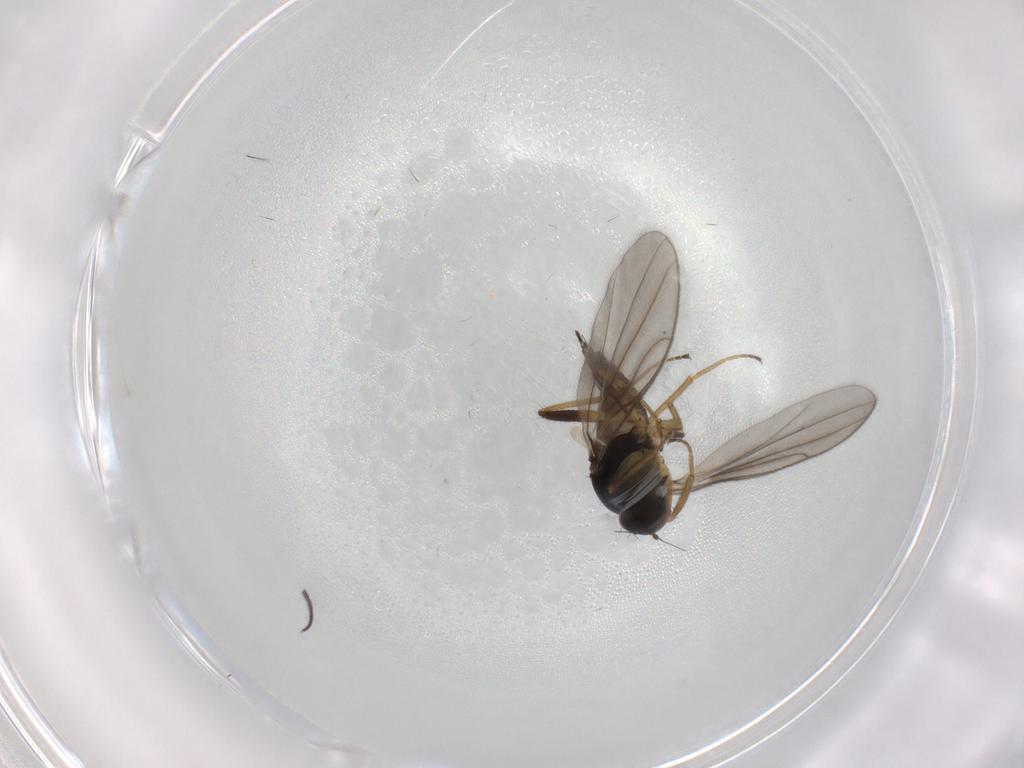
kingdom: Animalia
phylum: Arthropoda
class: Insecta
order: Diptera
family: Hybotidae
